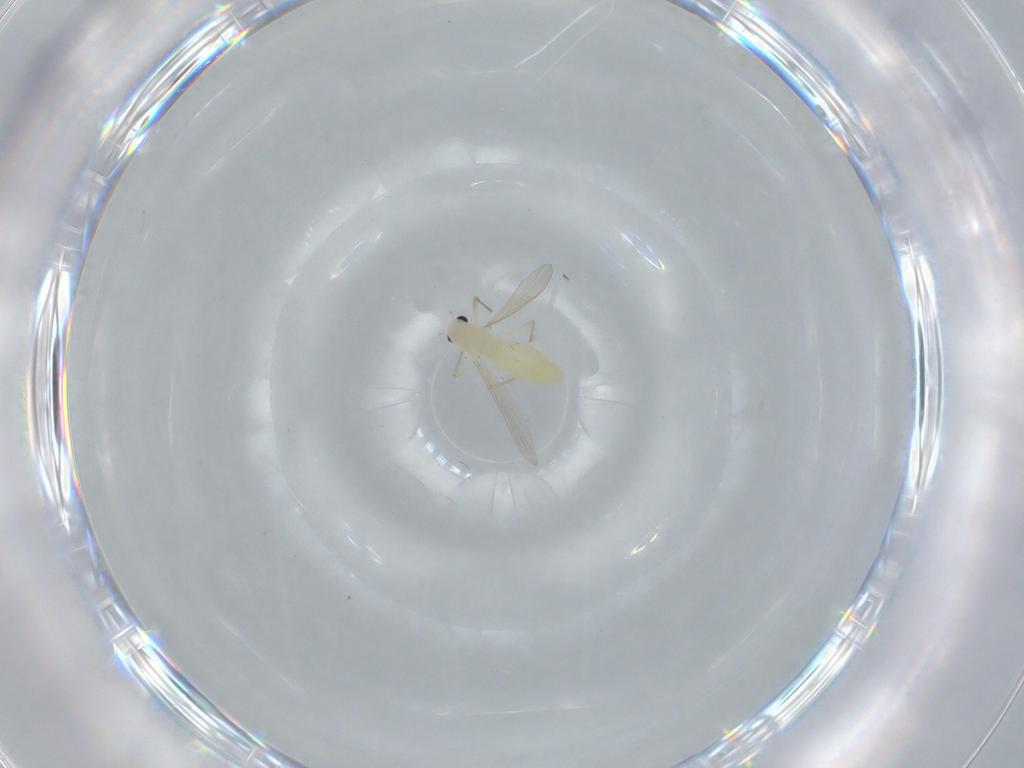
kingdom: Animalia
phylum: Arthropoda
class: Insecta
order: Diptera
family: Chironomidae
